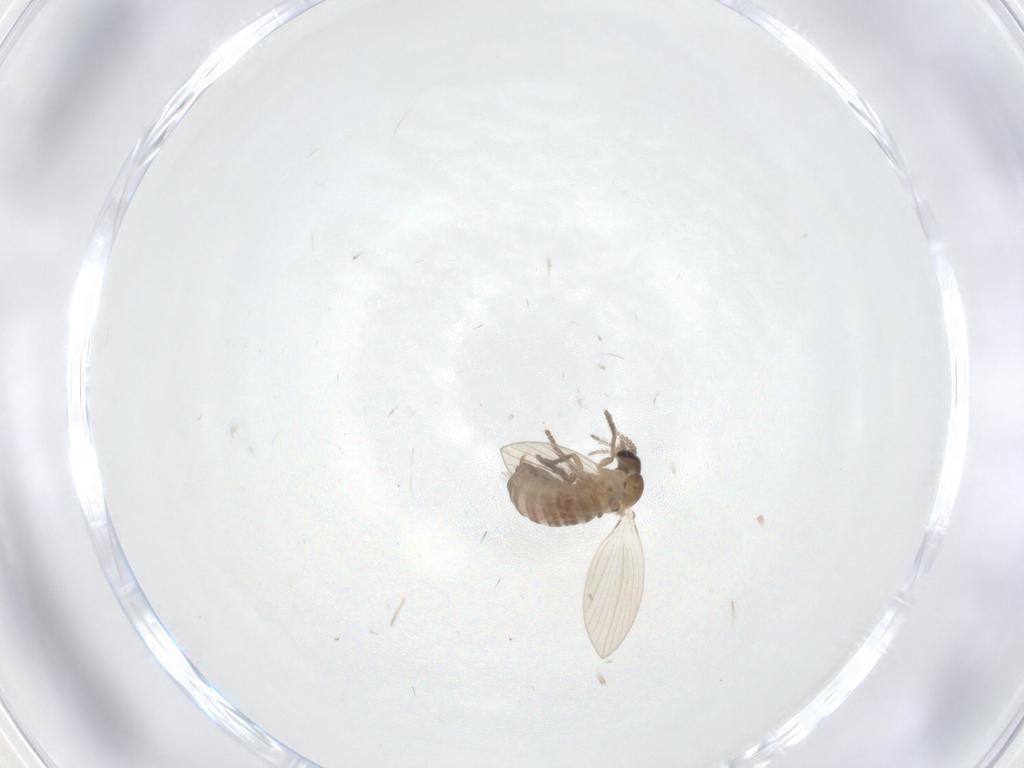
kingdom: Animalia
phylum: Arthropoda
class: Insecta
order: Diptera
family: Psychodidae
